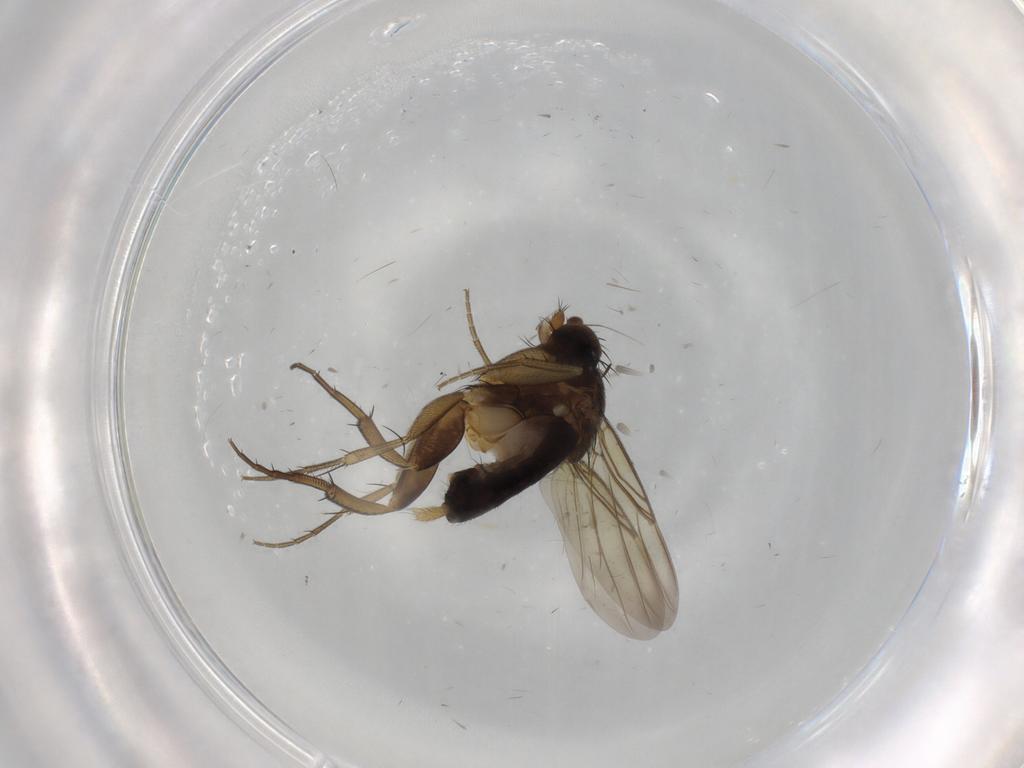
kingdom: Animalia
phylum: Arthropoda
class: Insecta
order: Diptera
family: Phoridae
